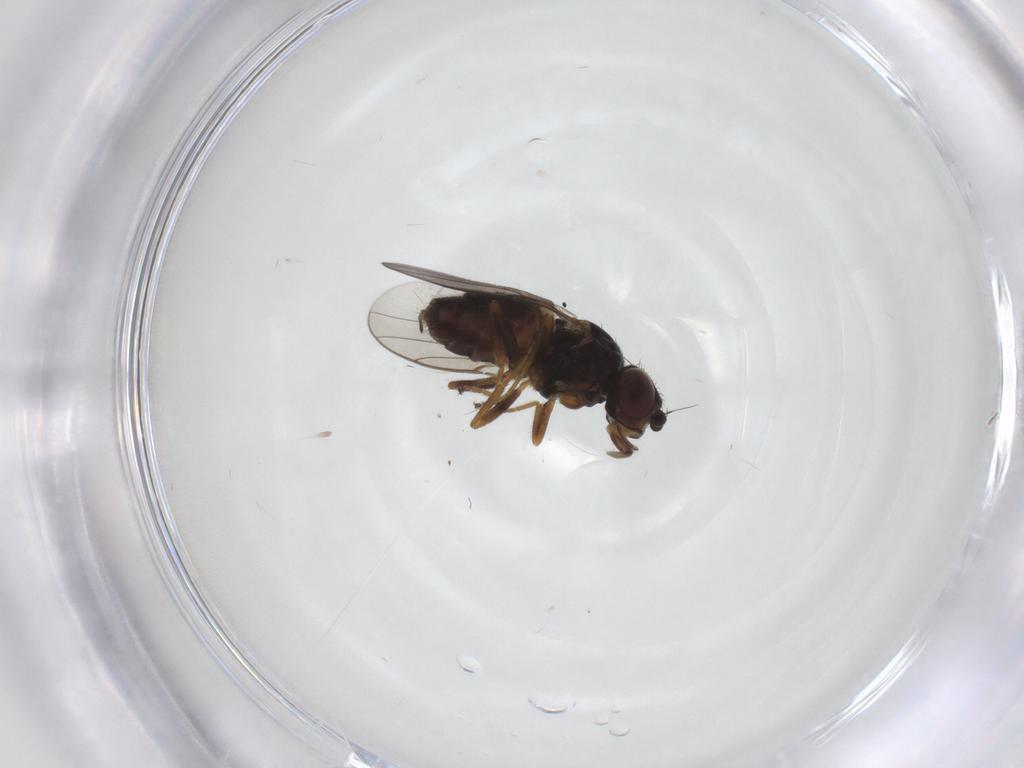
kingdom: Animalia
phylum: Arthropoda
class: Insecta
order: Diptera
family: Chloropidae
